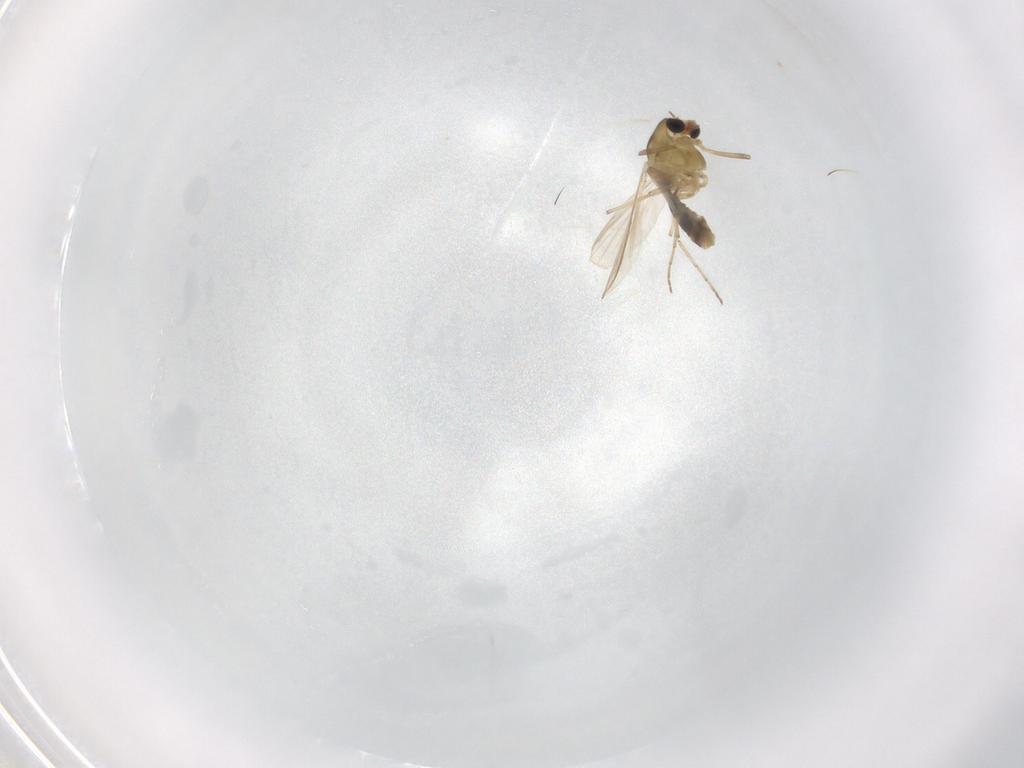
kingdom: Animalia
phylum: Arthropoda
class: Insecta
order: Diptera
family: Chironomidae
